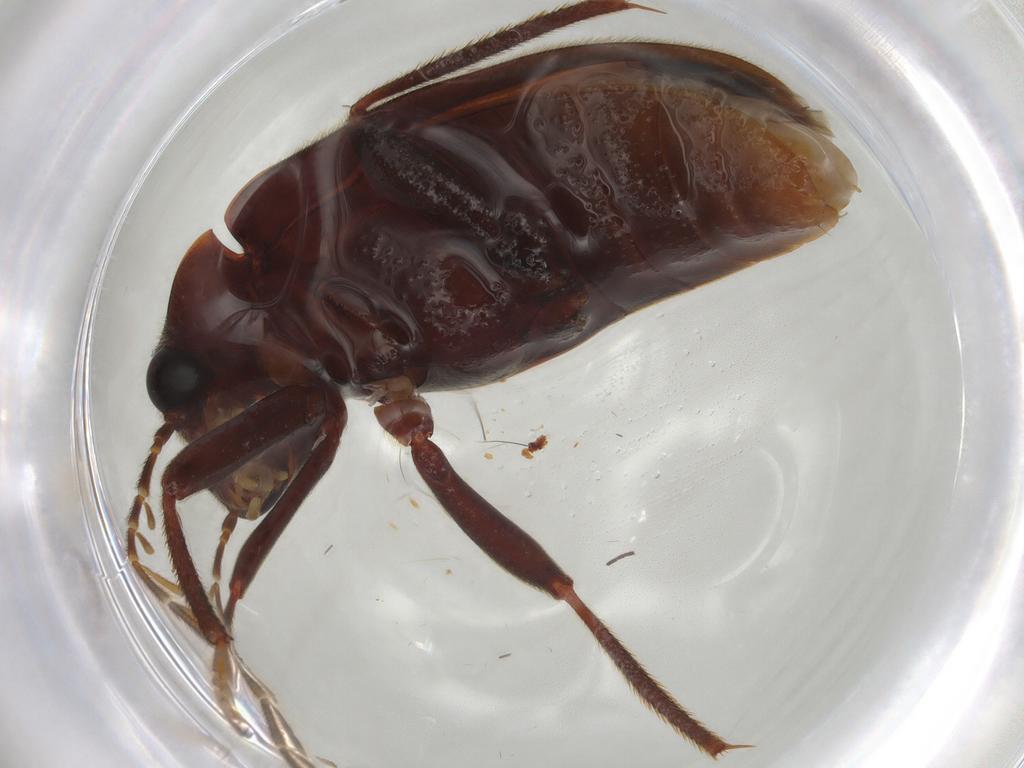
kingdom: Animalia
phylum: Arthropoda
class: Insecta
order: Coleoptera
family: Ptilodactylidae
